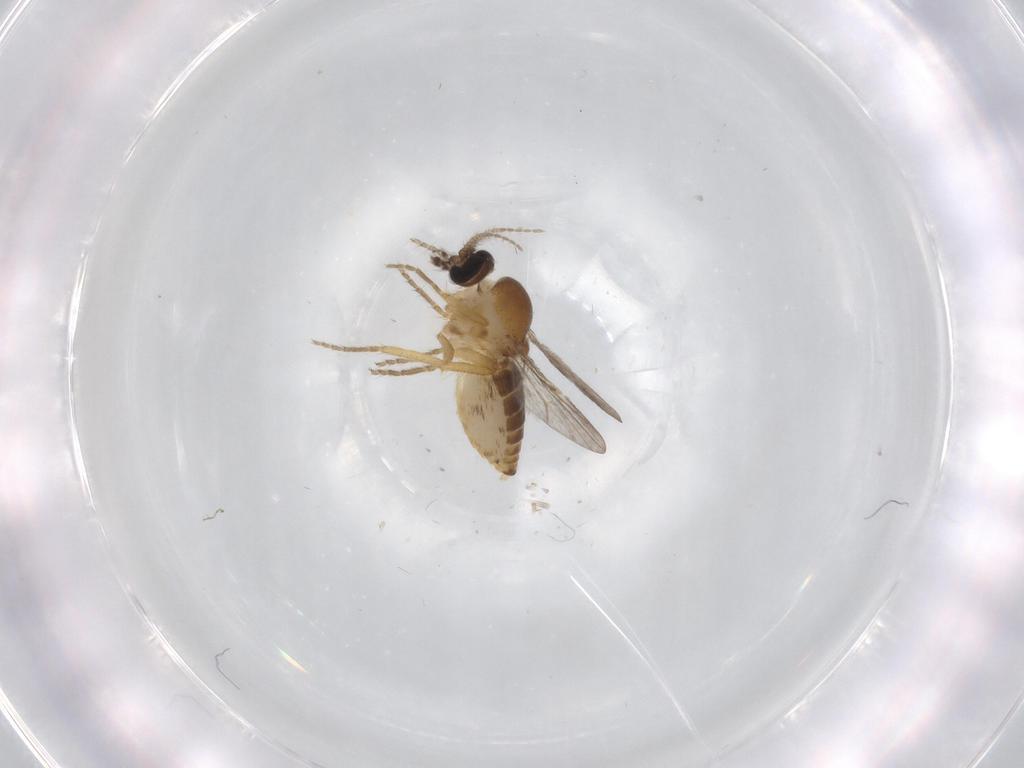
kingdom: Animalia
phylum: Arthropoda
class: Insecta
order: Diptera
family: Ceratopogonidae
